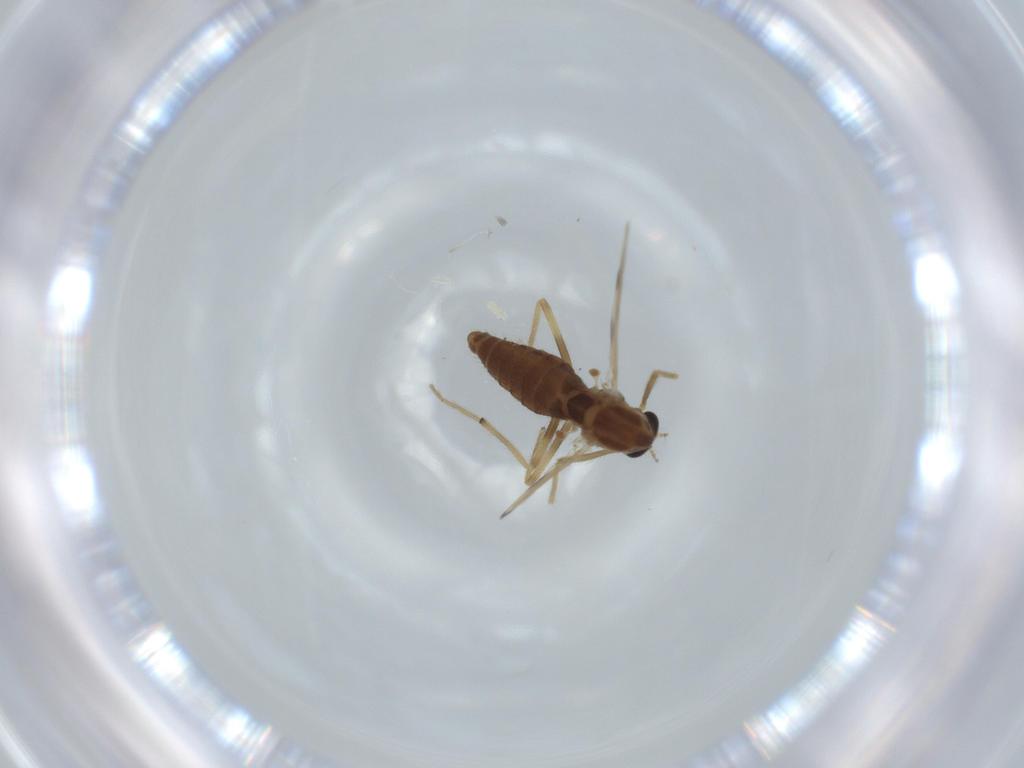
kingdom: Animalia
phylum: Arthropoda
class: Insecta
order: Diptera
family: Chironomidae
